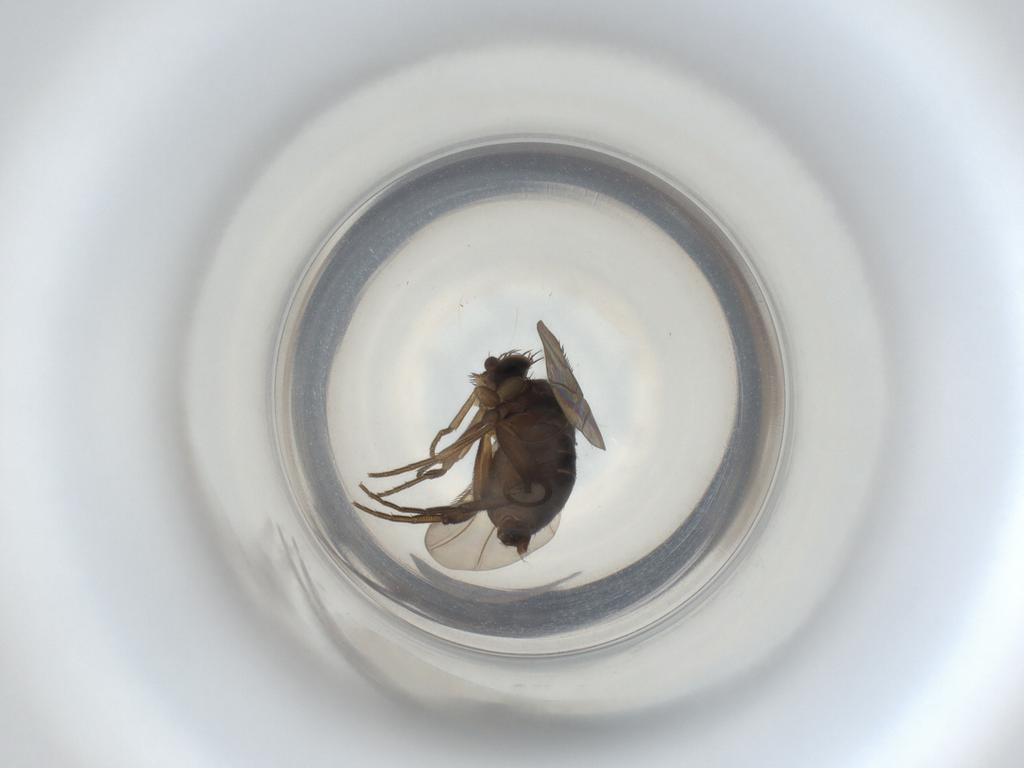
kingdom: Animalia
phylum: Arthropoda
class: Insecta
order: Diptera
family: Phoridae
